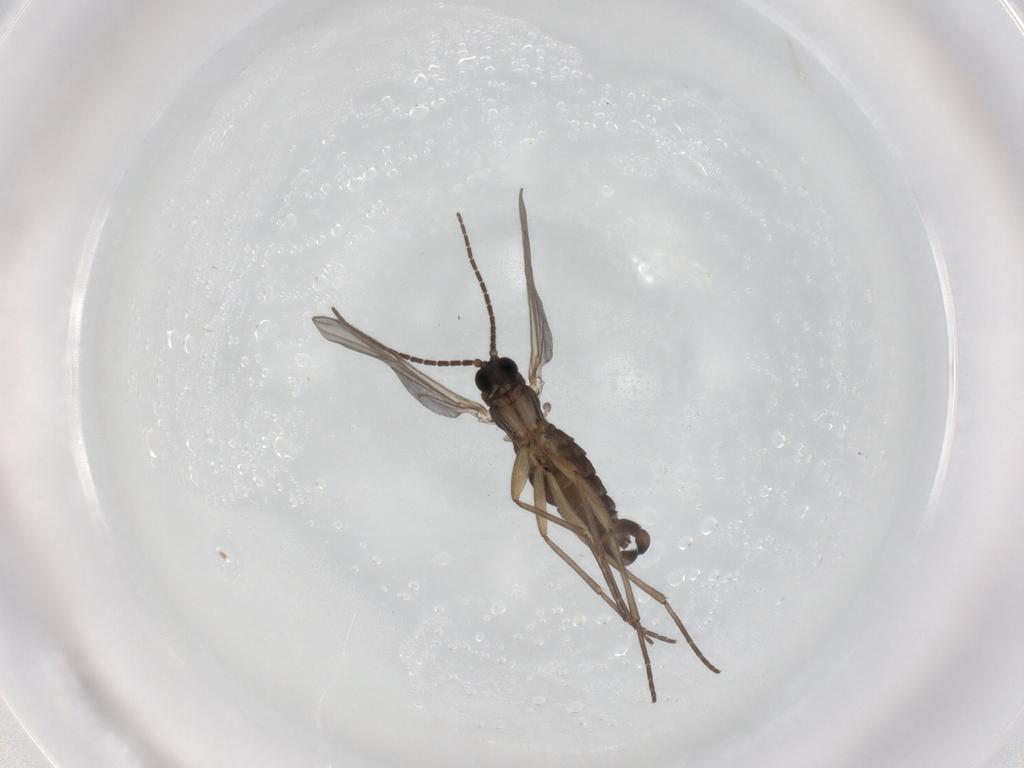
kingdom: Animalia
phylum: Arthropoda
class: Insecta
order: Diptera
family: Sciaridae
